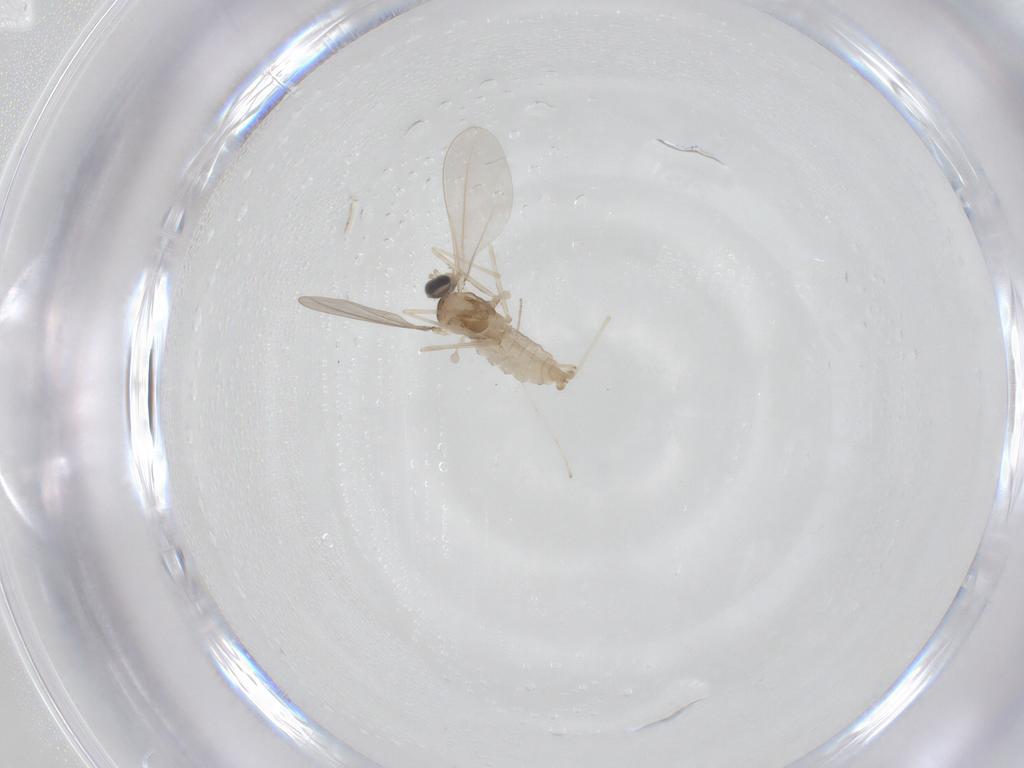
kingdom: Animalia
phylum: Arthropoda
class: Insecta
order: Diptera
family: Cecidomyiidae
